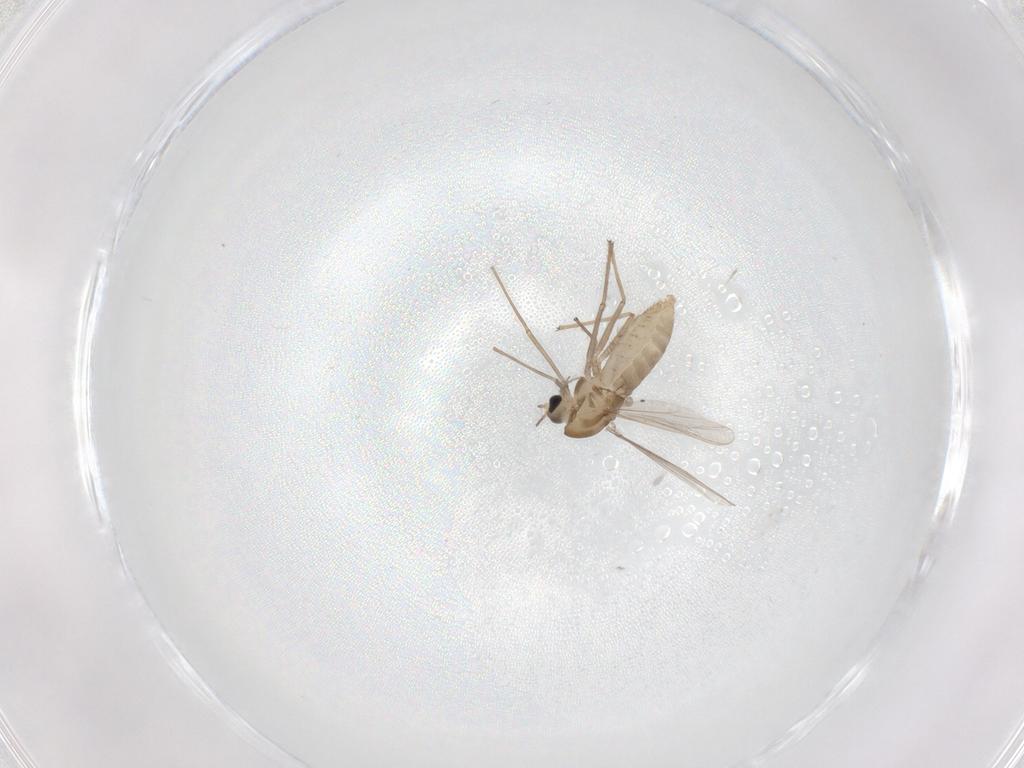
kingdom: Animalia
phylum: Arthropoda
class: Insecta
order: Diptera
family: Chironomidae
